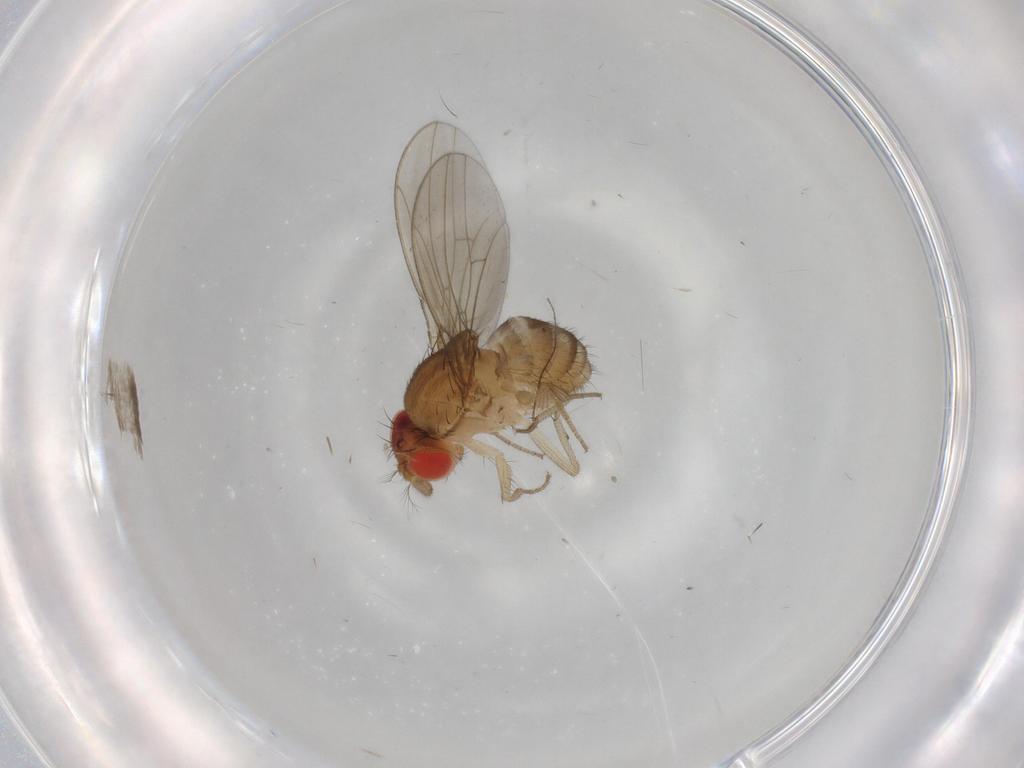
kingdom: Animalia
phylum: Arthropoda
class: Insecta
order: Diptera
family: Drosophilidae
